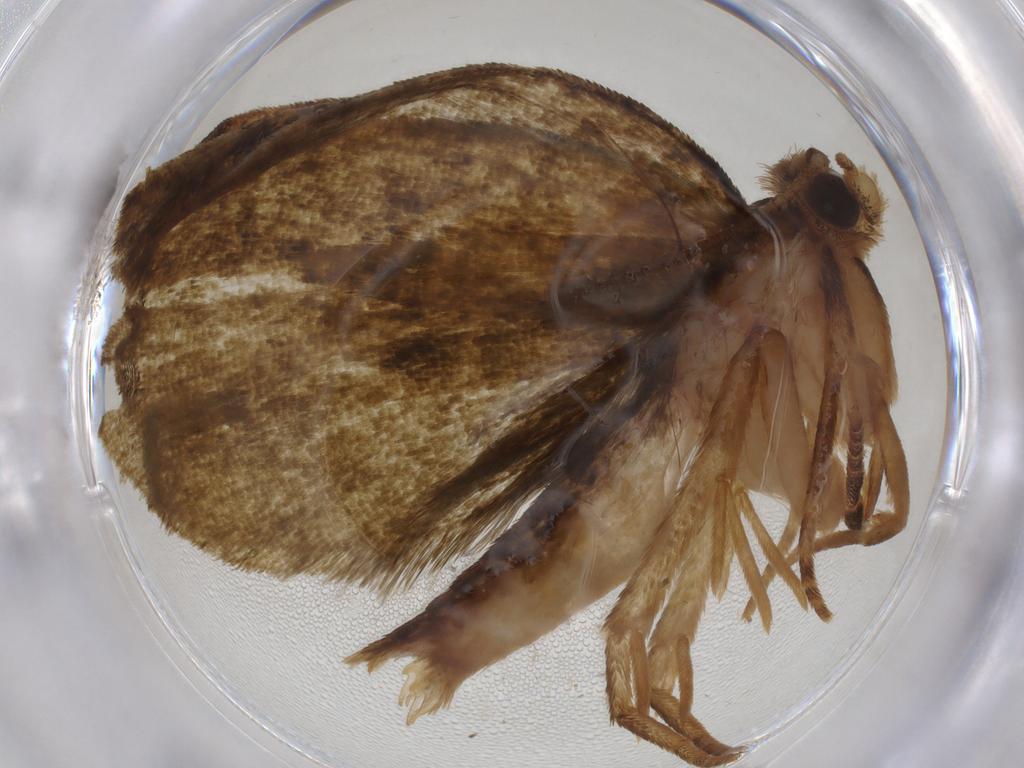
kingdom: Animalia
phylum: Arthropoda
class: Insecta
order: Lepidoptera
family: Geometridae
